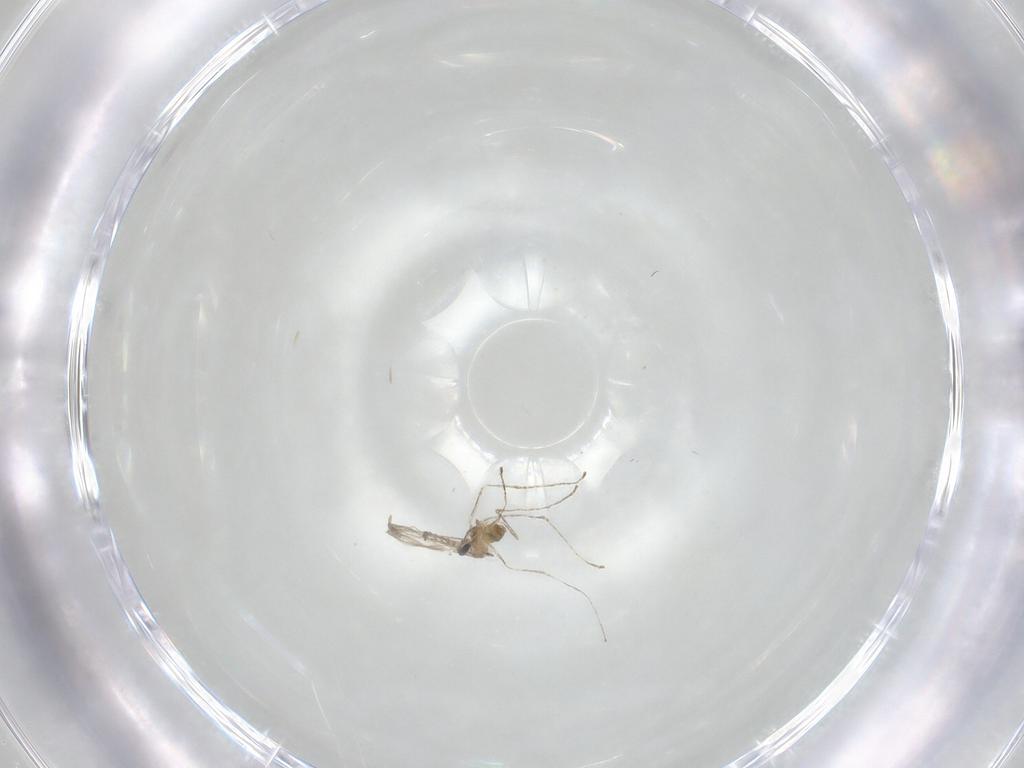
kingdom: Animalia
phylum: Arthropoda
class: Insecta
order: Diptera
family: Cecidomyiidae
